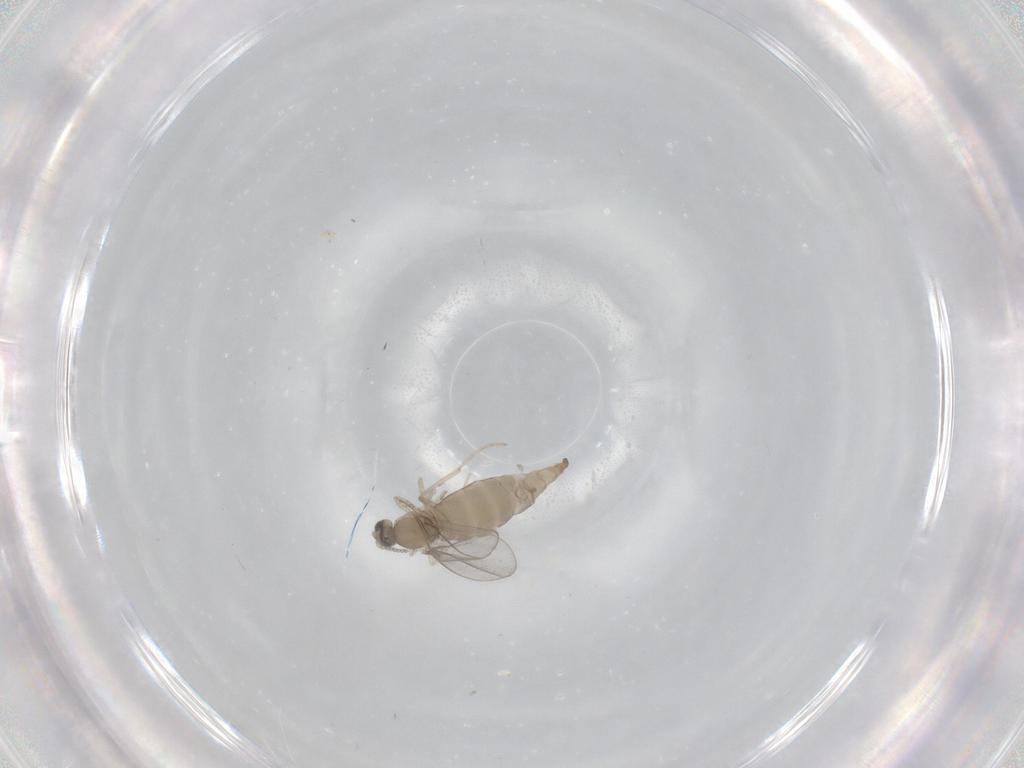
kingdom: Animalia
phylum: Arthropoda
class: Insecta
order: Diptera
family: Cecidomyiidae
